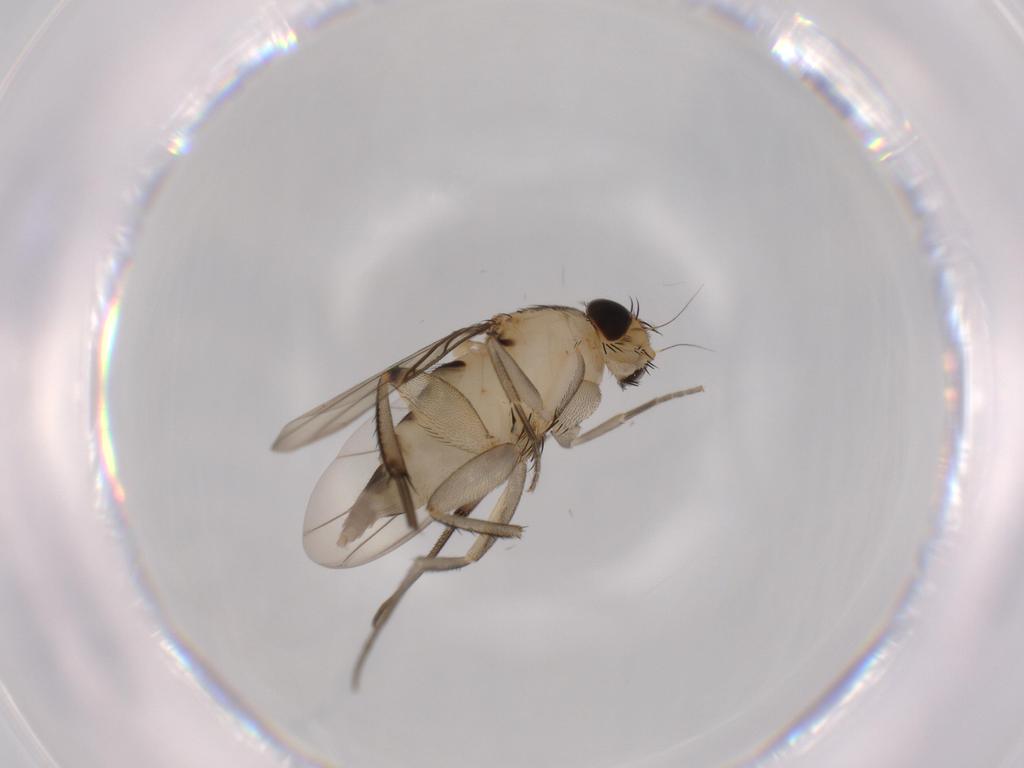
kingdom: Animalia
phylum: Arthropoda
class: Insecta
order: Diptera
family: Phoridae
